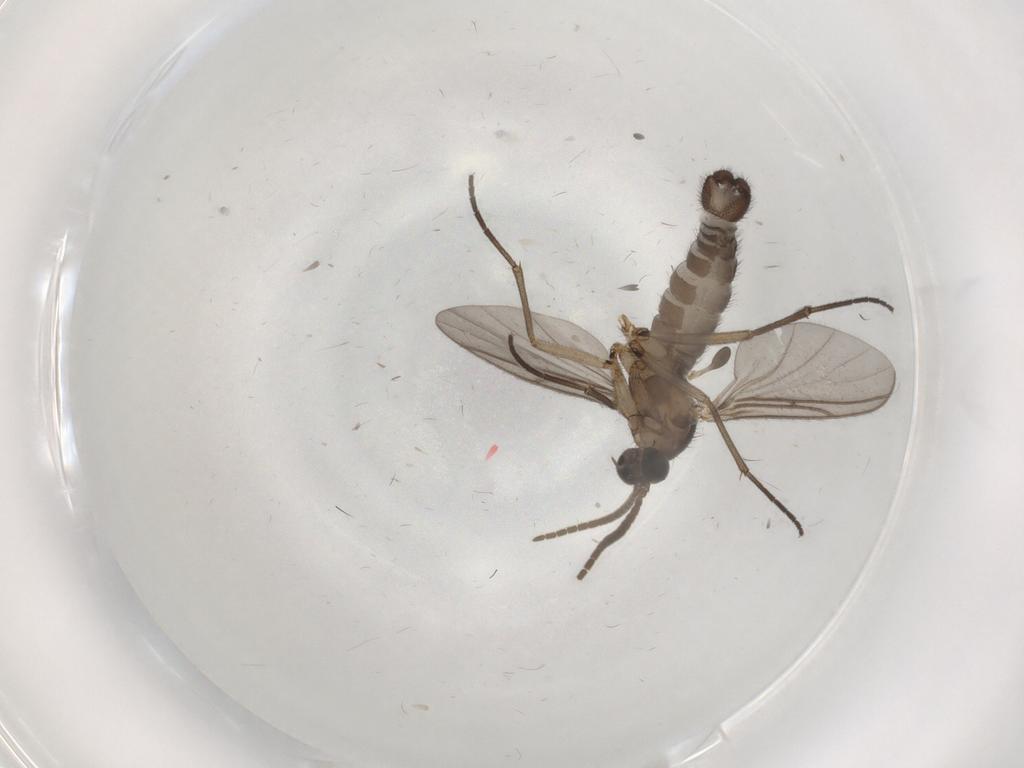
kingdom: Animalia
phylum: Arthropoda
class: Insecta
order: Diptera
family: Sciaridae
